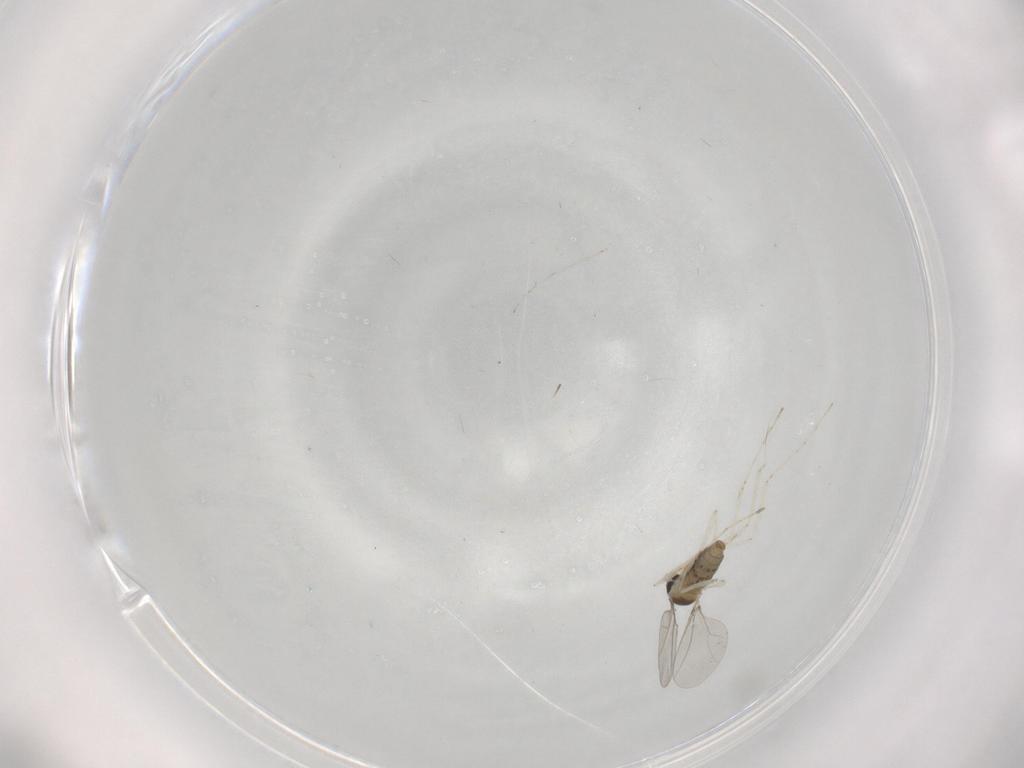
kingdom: Animalia
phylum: Arthropoda
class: Insecta
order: Diptera
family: Cecidomyiidae
